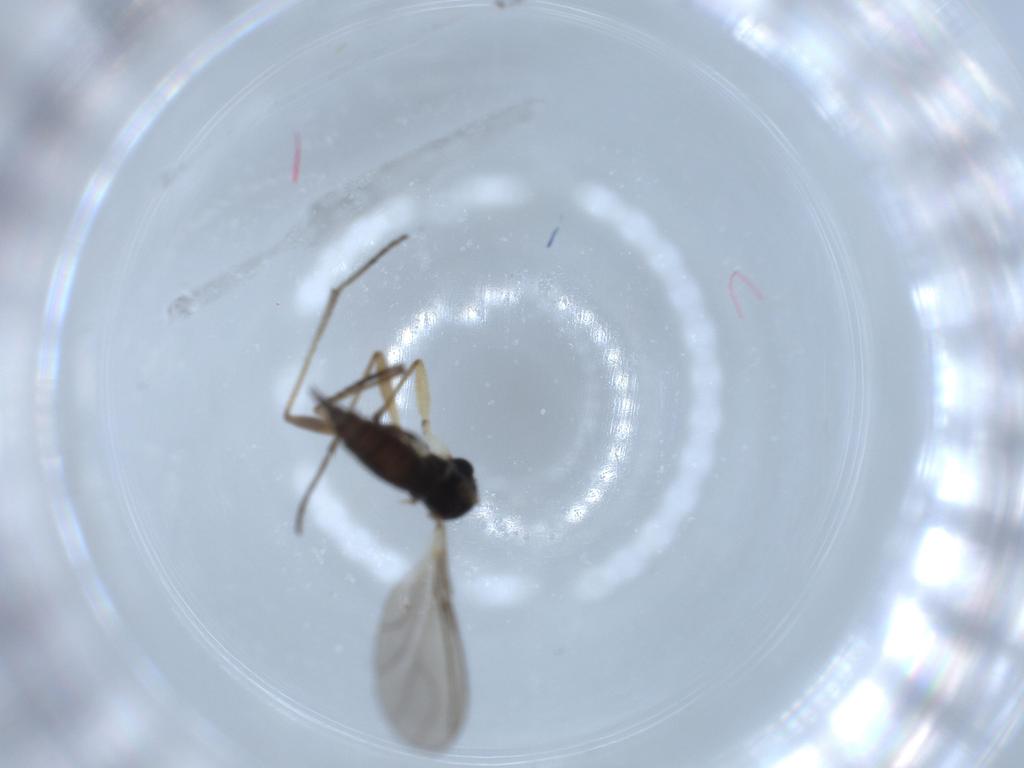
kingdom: Animalia
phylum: Arthropoda
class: Insecta
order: Diptera
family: Sciaridae
